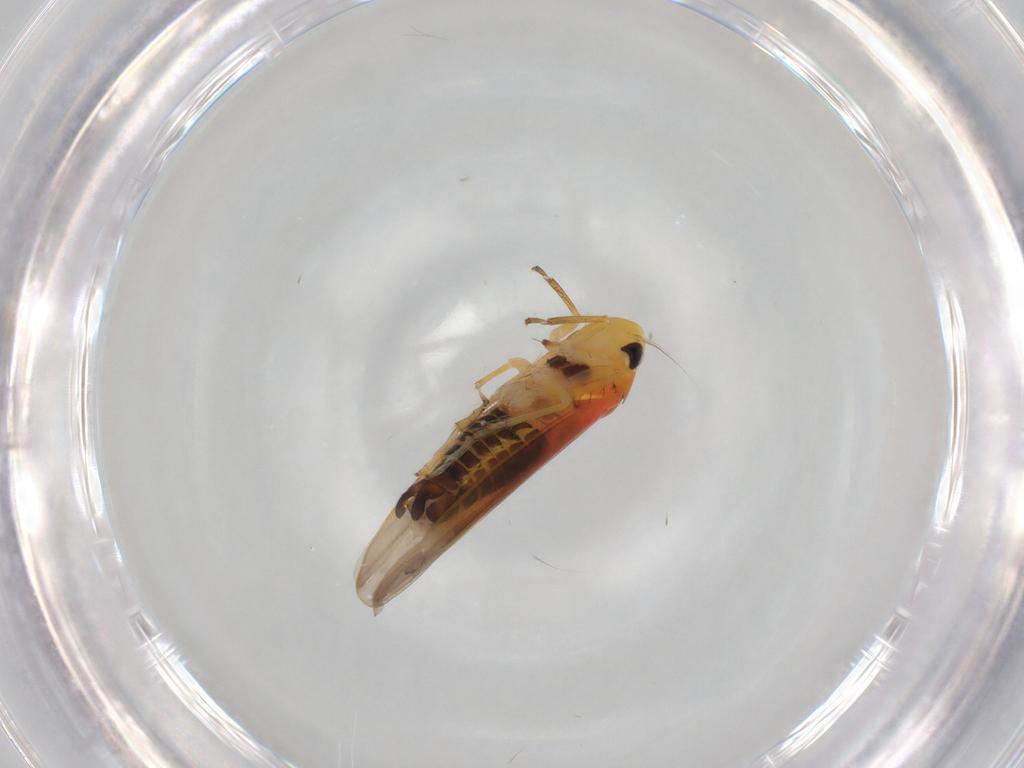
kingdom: Animalia
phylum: Arthropoda
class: Insecta
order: Hemiptera
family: Cicadellidae
